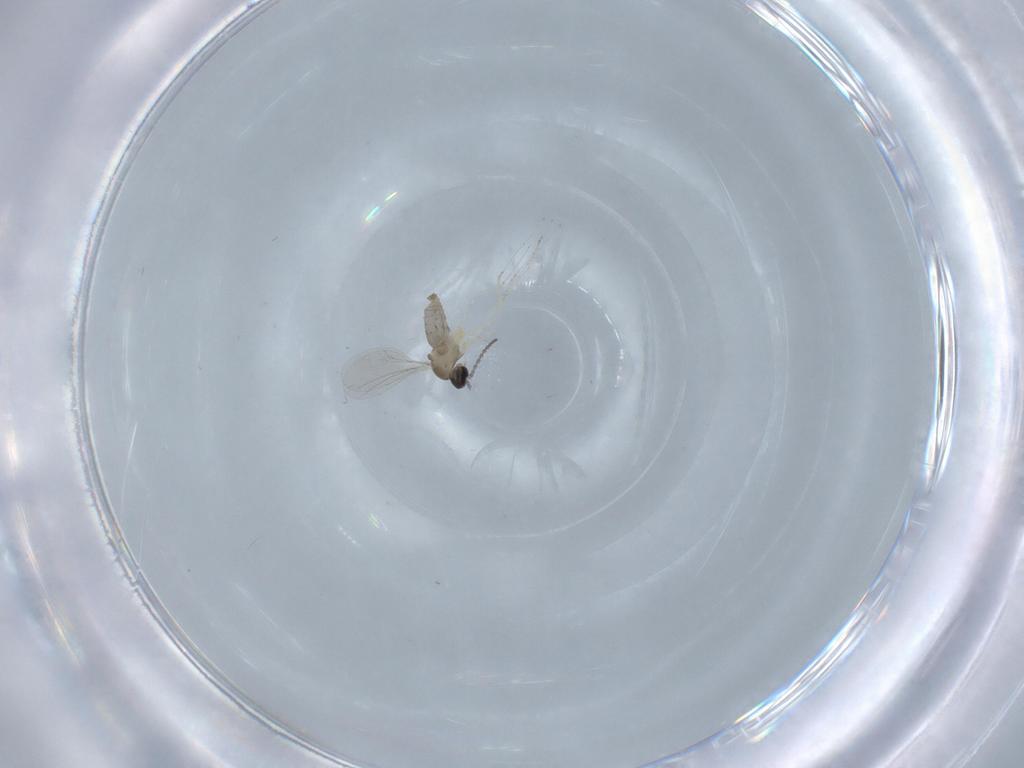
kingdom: Animalia
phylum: Arthropoda
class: Insecta
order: Diptera
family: Cecidomyiidae
